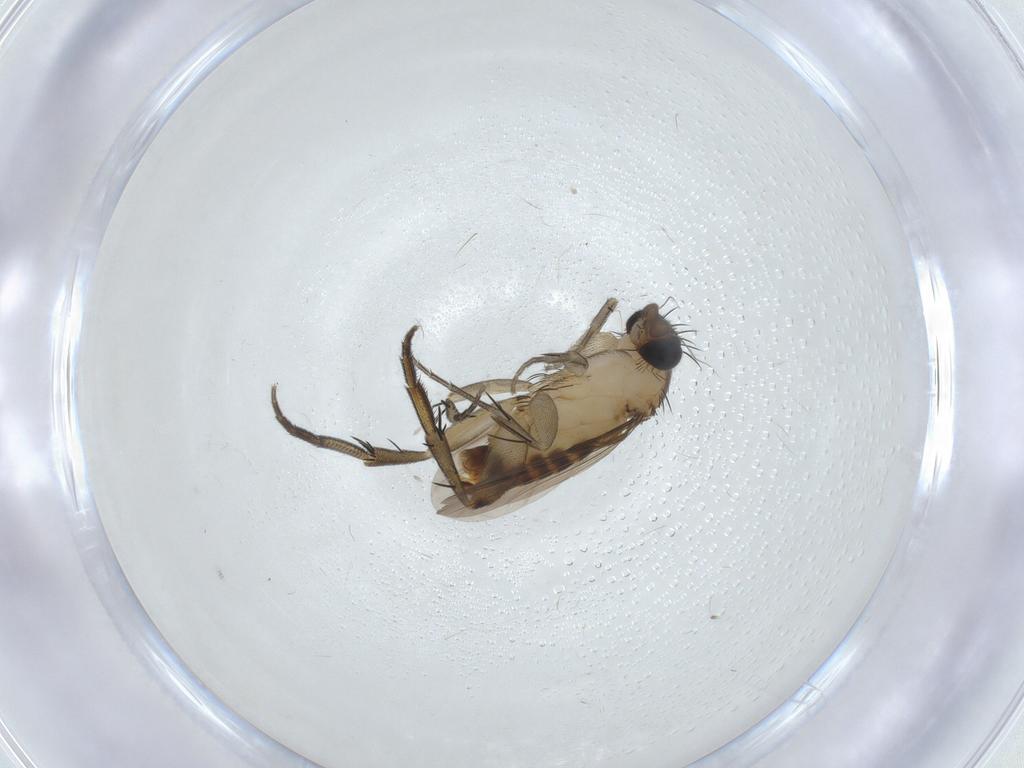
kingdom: Animalia
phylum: Arthropoda
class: Insecta
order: Diptera
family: Phoridae
